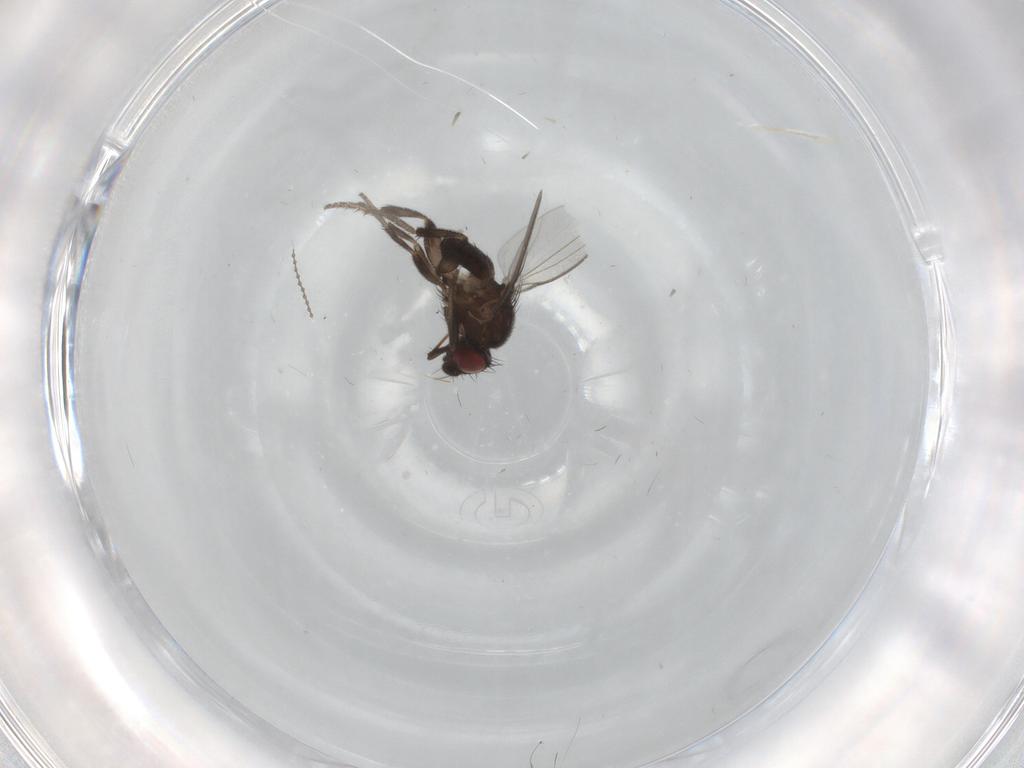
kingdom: Animalia
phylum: Arthropoda
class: Insecta
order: Diptera
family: Milichiidae
